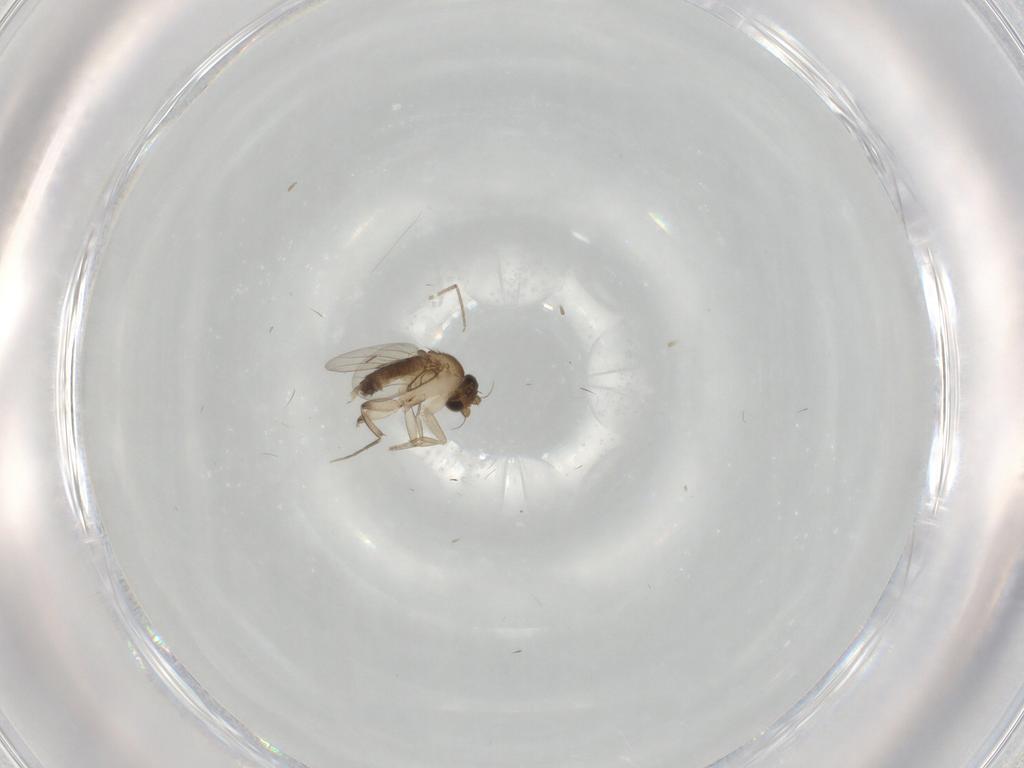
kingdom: Animalia
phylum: Arthropoda
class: Insecta
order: Diptera
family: Phoridae
